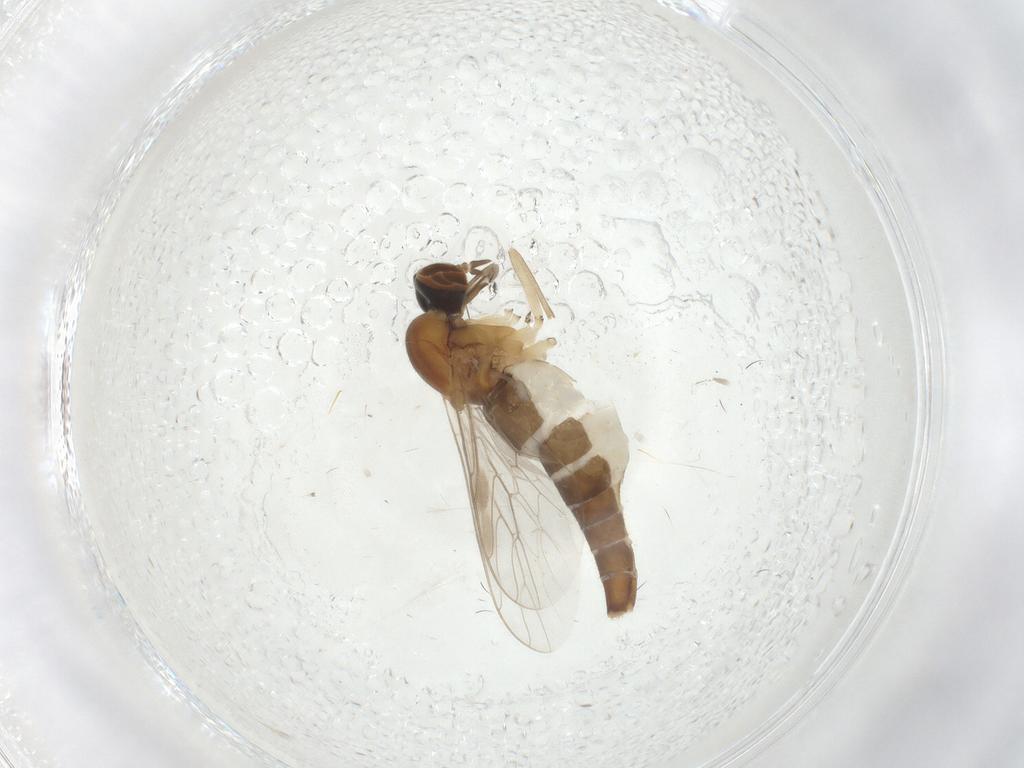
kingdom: Animalia
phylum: Arthropoda
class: Insecta
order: Diptera
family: Scenopinidae
